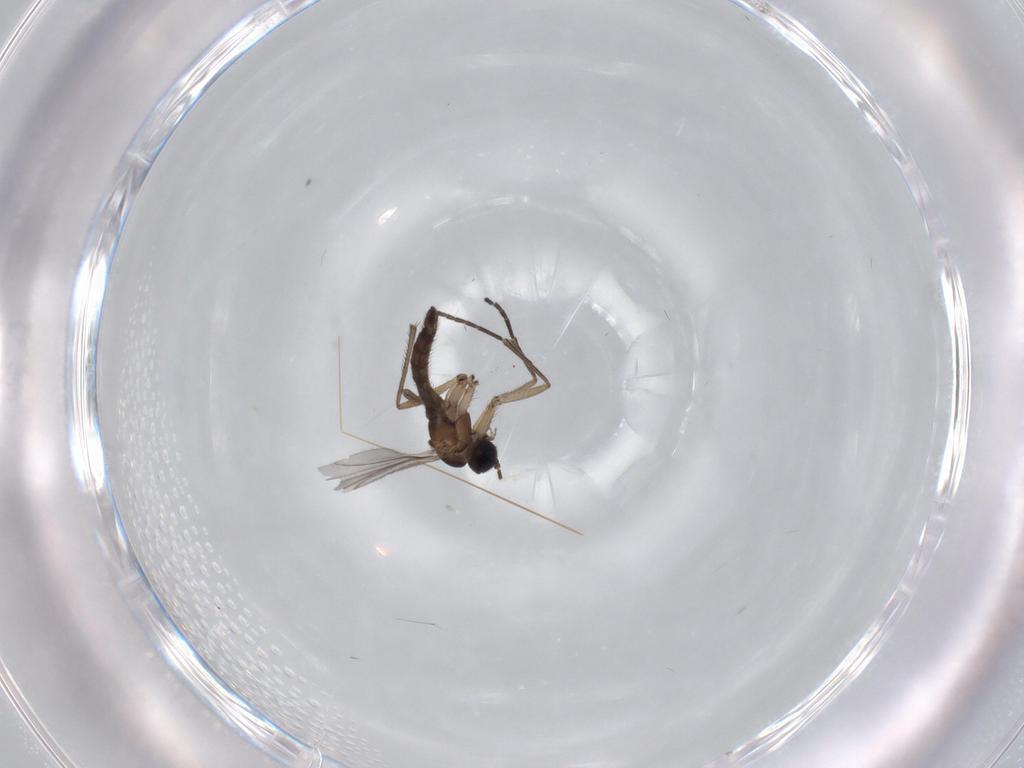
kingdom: Animalia
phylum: Arthropoda
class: Insecta
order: Diptera
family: Sciaridae
